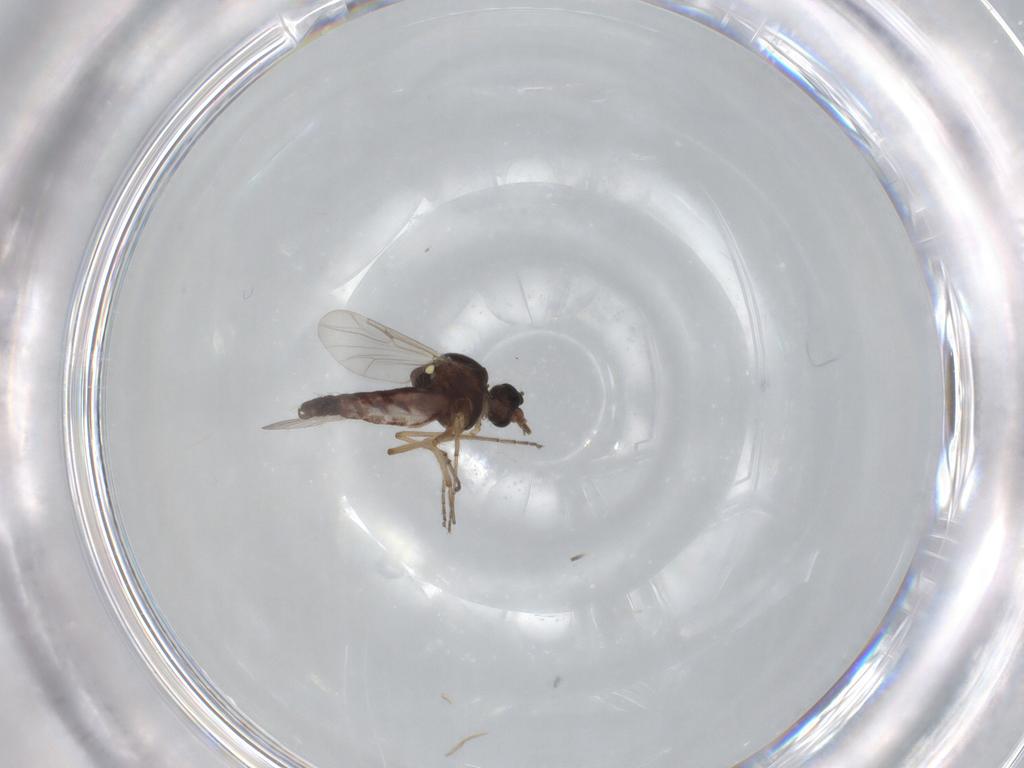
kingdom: Animalia
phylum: Arthropoda
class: Insecta
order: Diptera
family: Ceratopogonidae
